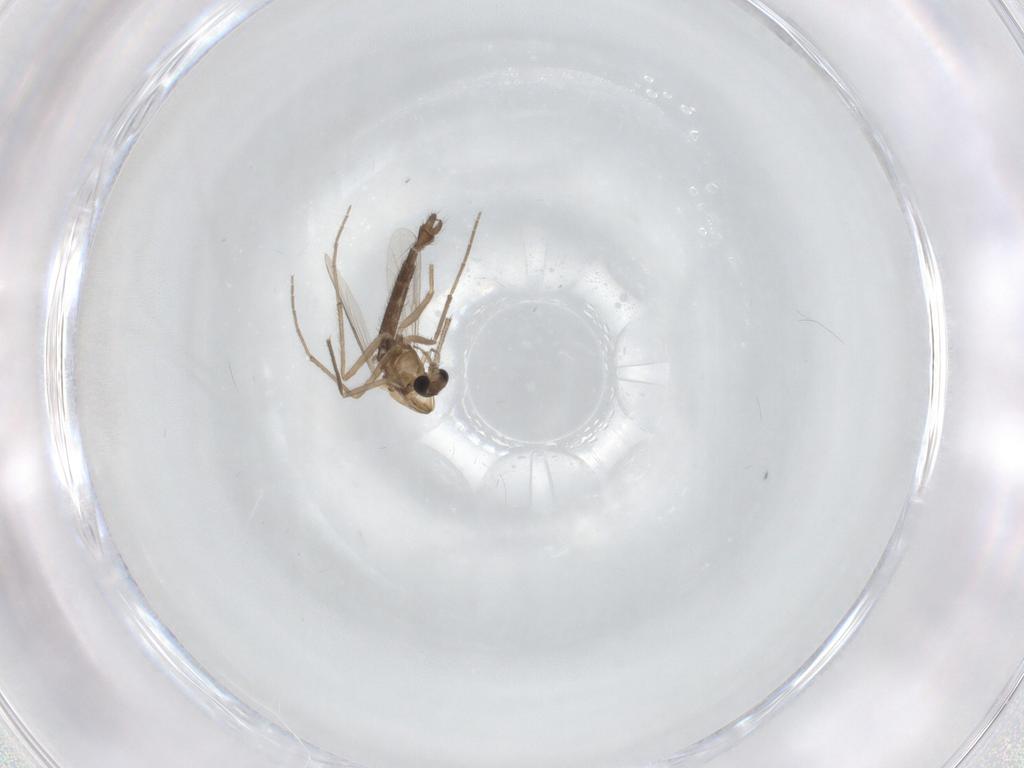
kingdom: Animalia
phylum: Arthropoda
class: Insecta
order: Diptera
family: Chironomidae
